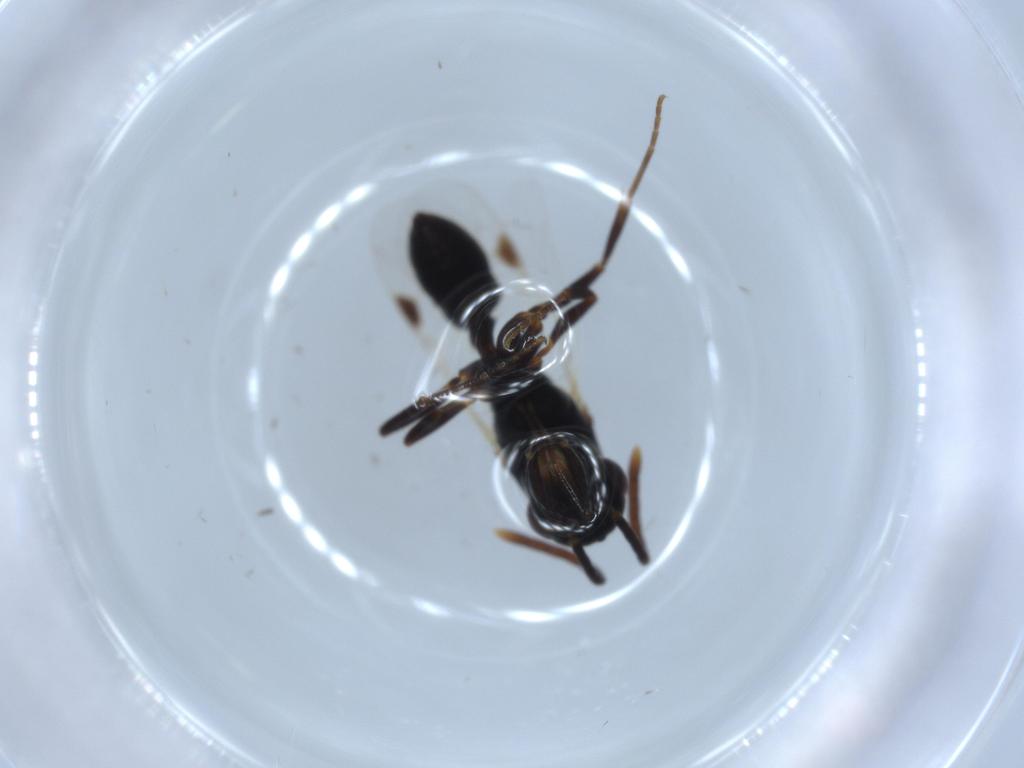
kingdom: Animalia
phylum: Arthropoda
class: Insecta
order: Hymenoptera
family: Formicidae
